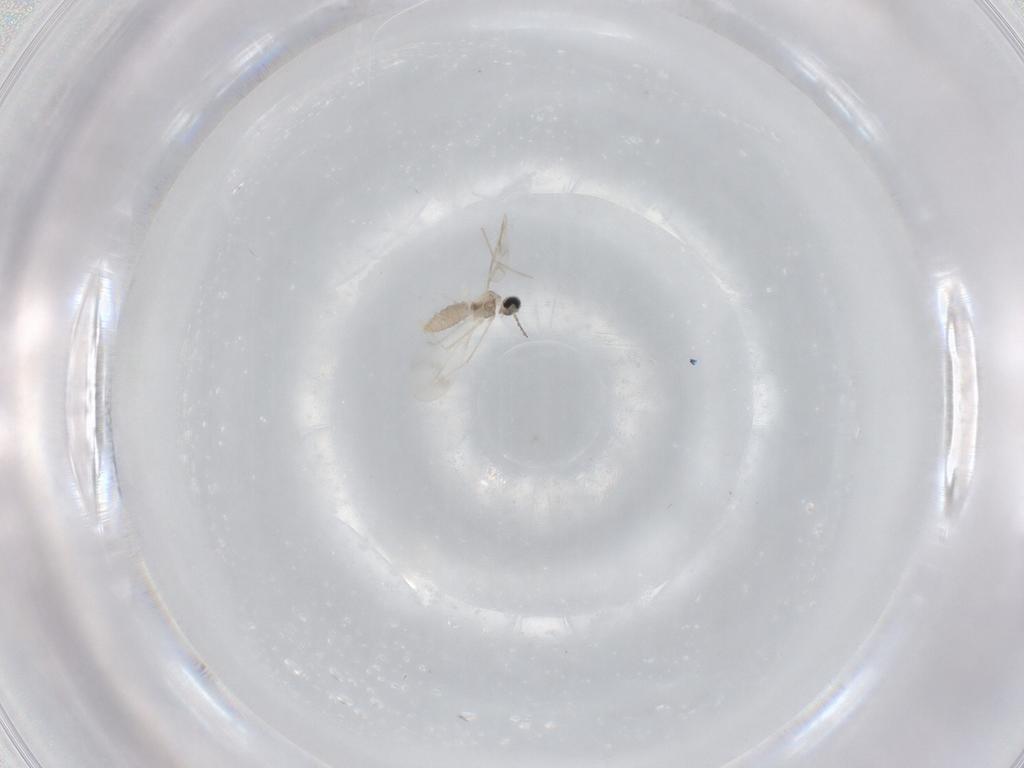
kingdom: Animalia
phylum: Arthropoda
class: Insecta
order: Diptera
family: Cecidomyiidae
